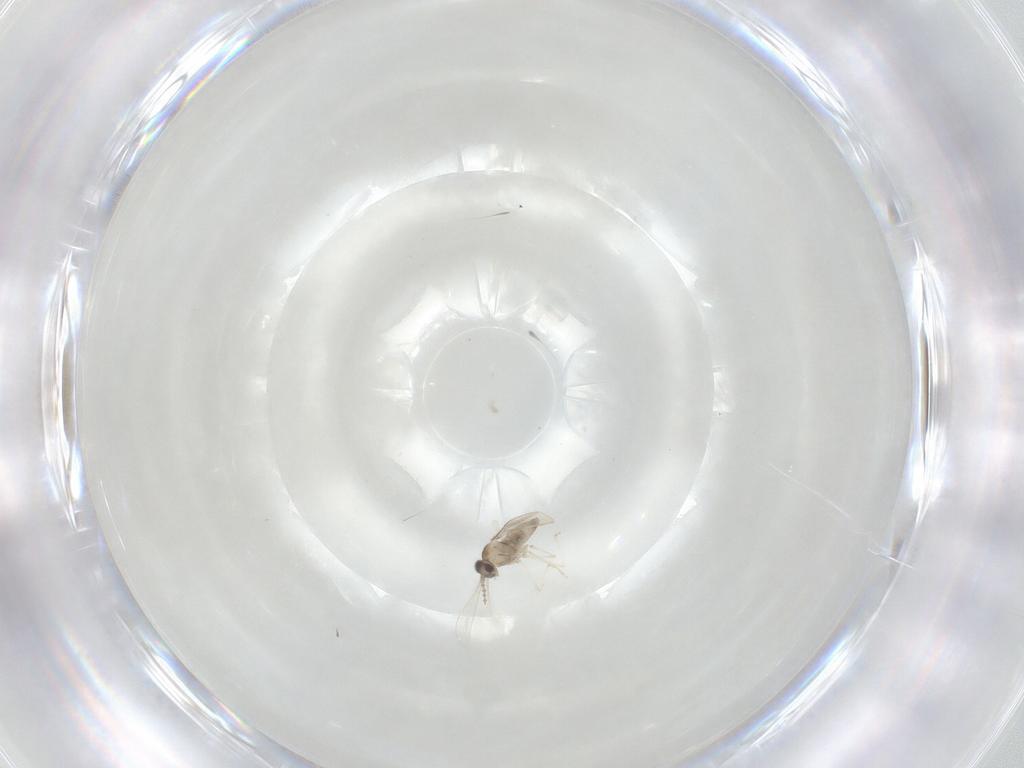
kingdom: Animalia
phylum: Arthropoda
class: Insecta
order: Diptera
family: Cecidomyiidae
